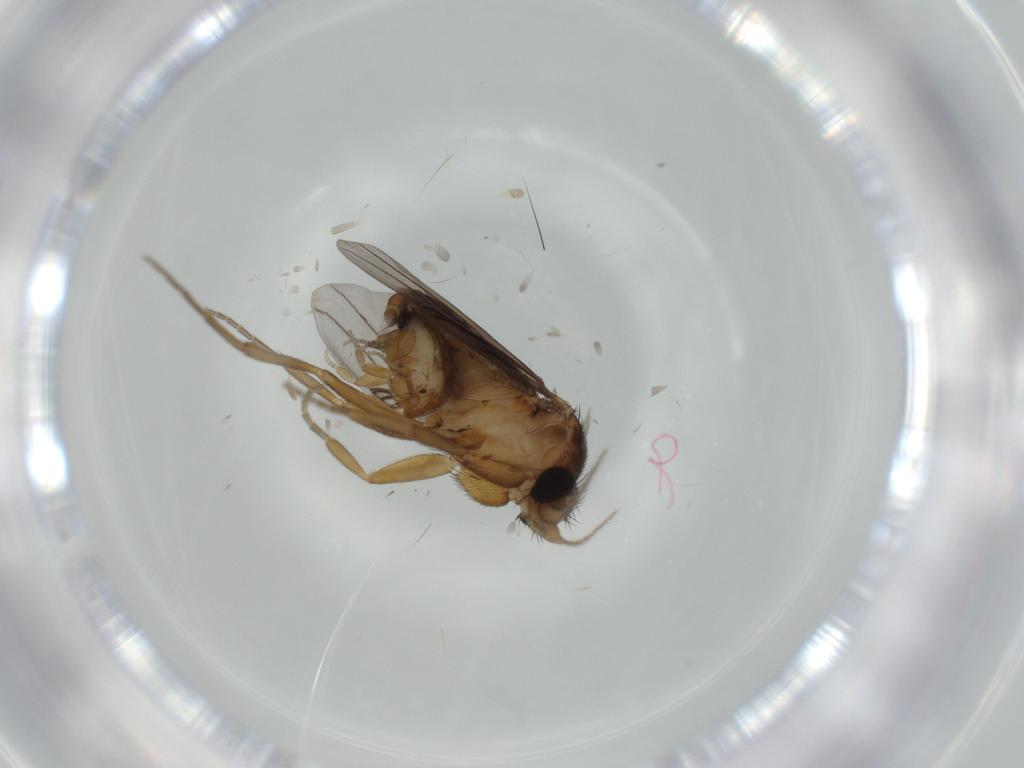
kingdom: Animalia
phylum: Arthropoda
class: Insecta
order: Diptera
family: Phoridae
